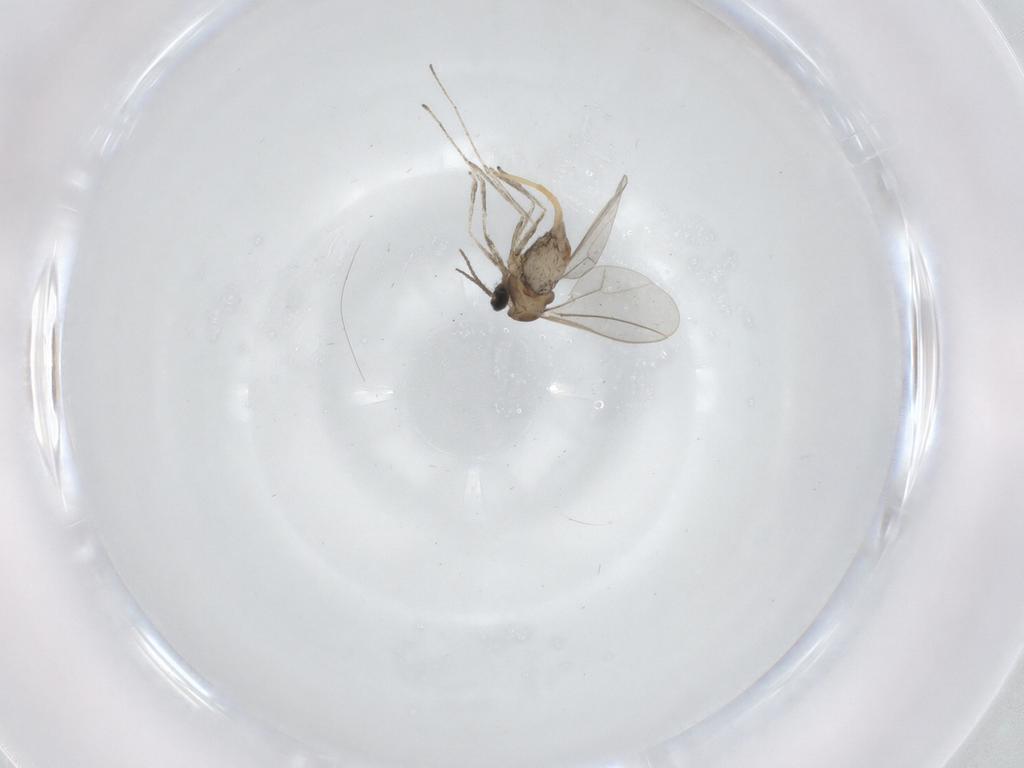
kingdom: Animalia
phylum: Arthropoda
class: Insecta
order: Diptera
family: Cecidomyiidae
